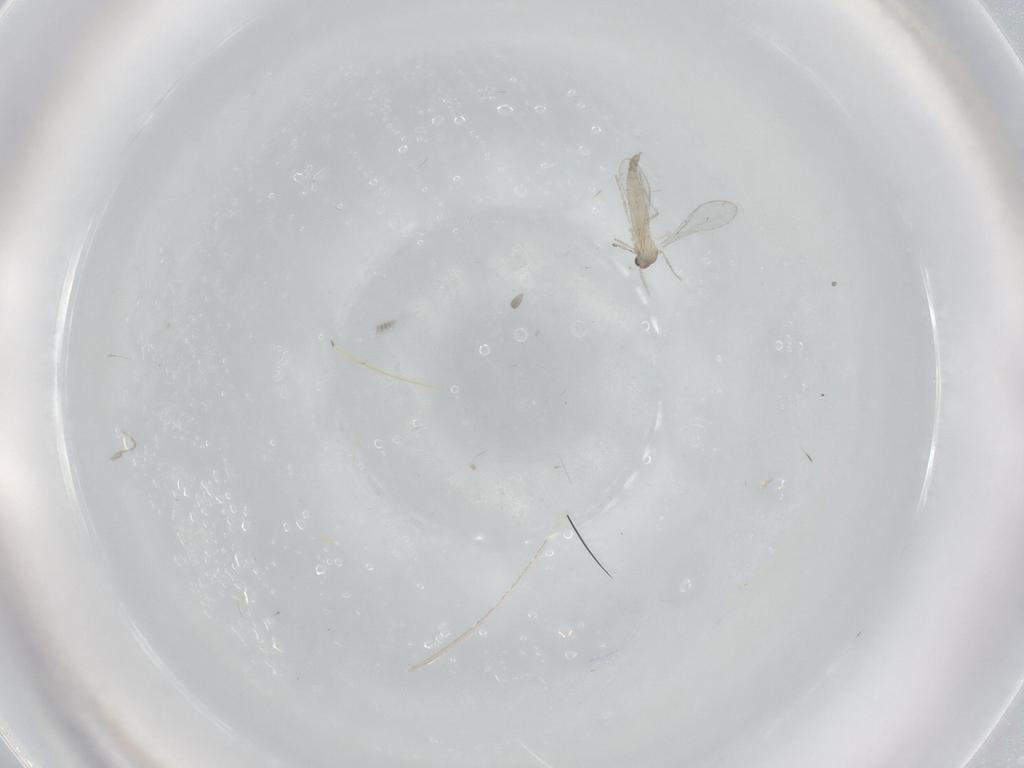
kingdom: Animalia
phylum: Arthropoda
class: Insecta
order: Diptera
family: Cecidomyiidae
